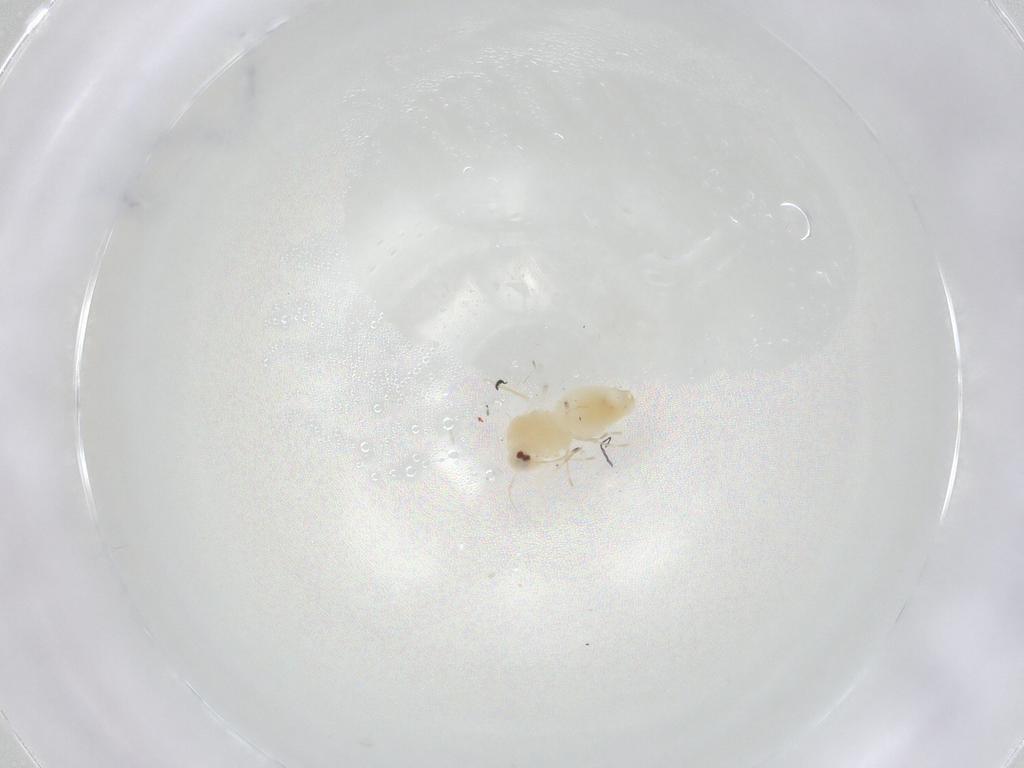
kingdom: Animalia
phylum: Arthropoda
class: Insecta
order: Hemiptera
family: Aleyrodidae
